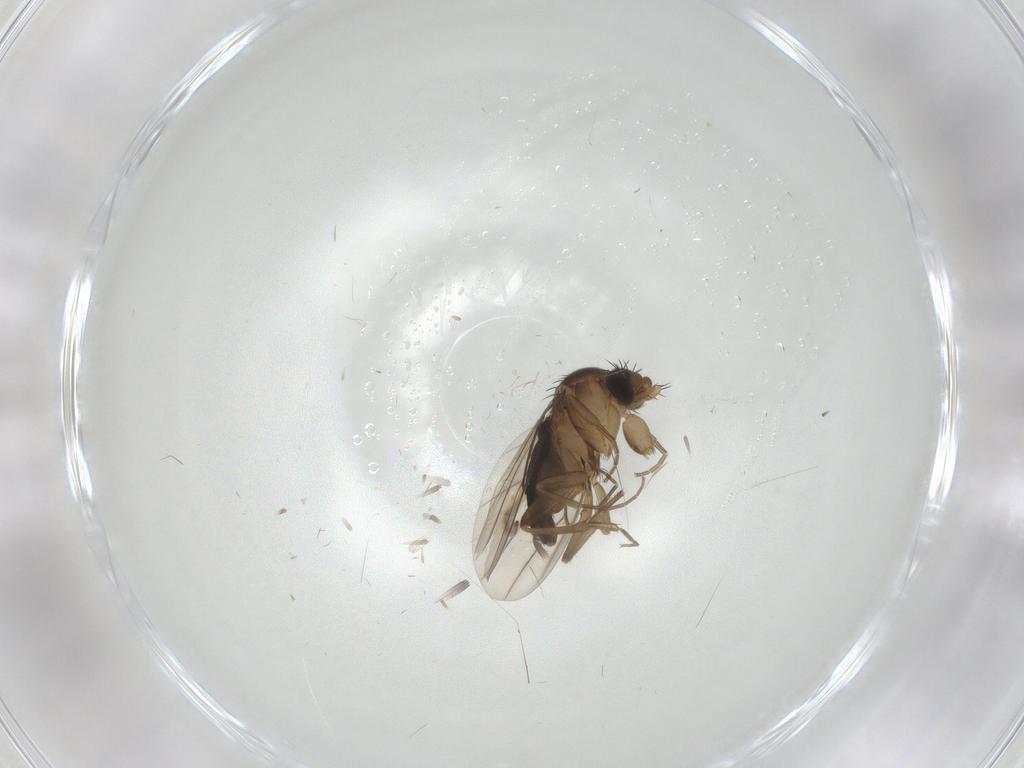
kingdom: Animalia
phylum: Arthropoda
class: Insecta
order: Diptera
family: Phoridae
